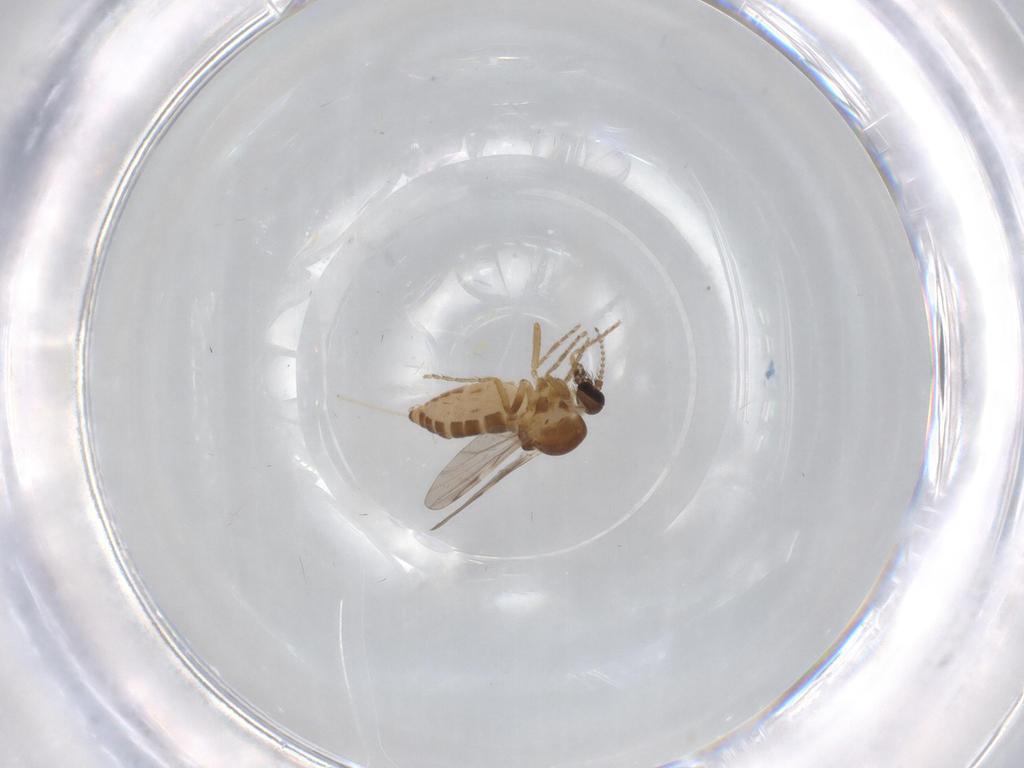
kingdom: Animalia
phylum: Arthropoda
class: Insecta
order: Diptera
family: Ceratopogonidae
